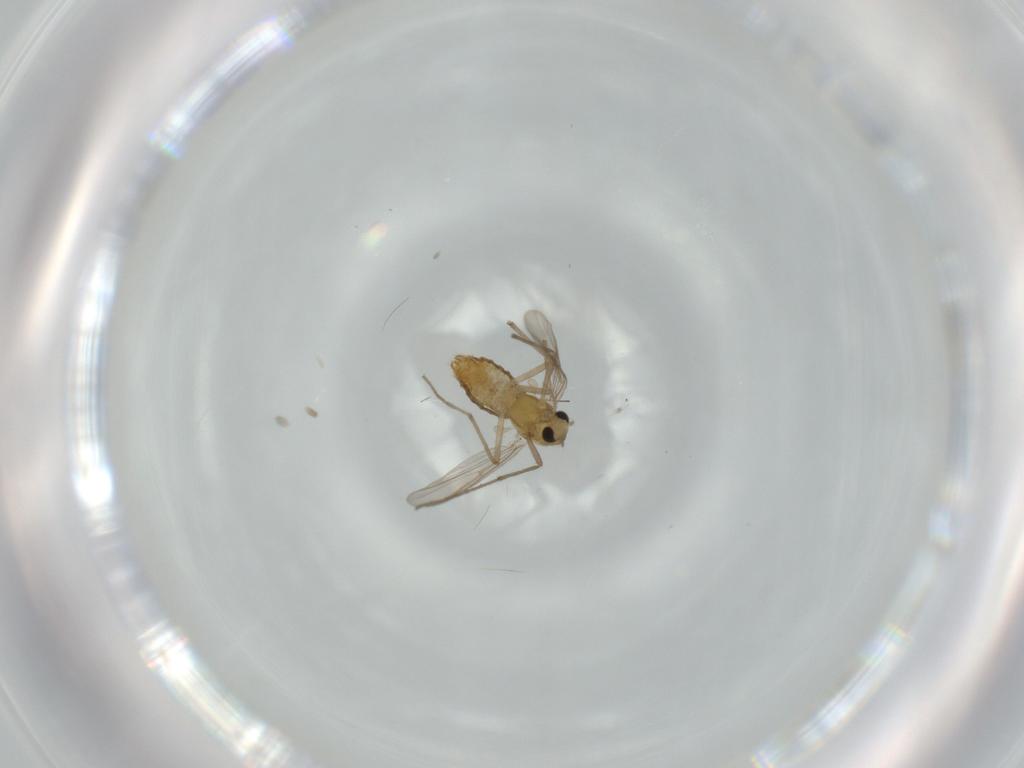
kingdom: Animalia
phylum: Arthropoda
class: Insecta
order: Diptera
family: Chironomidae
